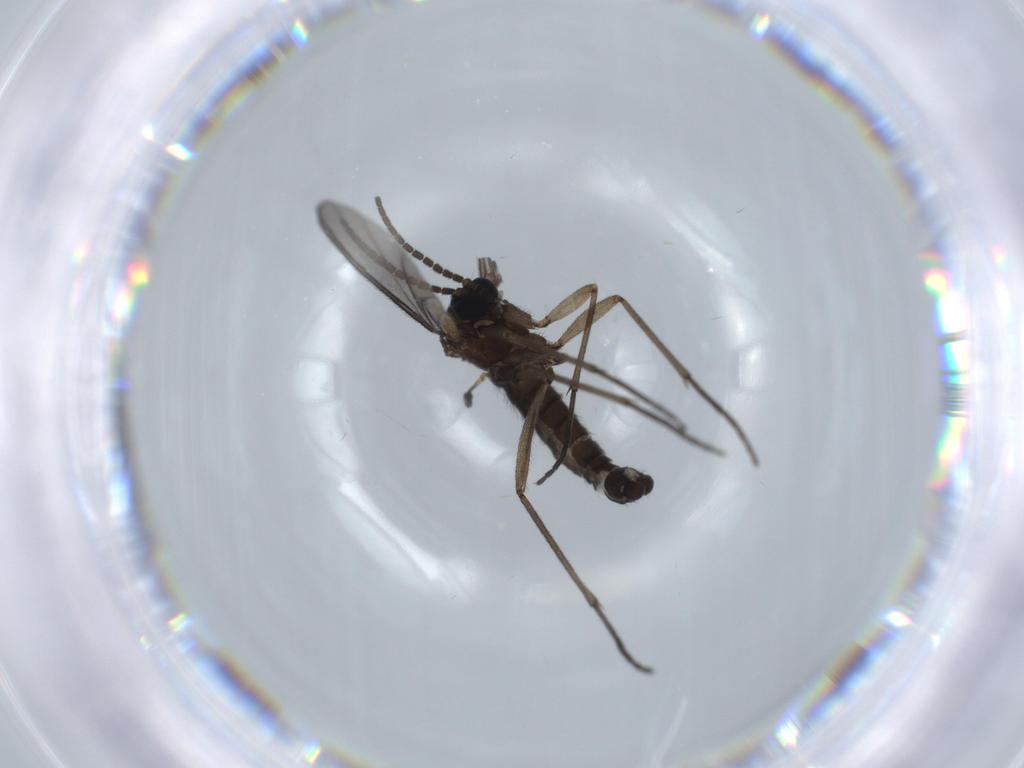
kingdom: Animalia
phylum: Arthropoda
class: Insecta
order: Diptera
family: Sciaridae
